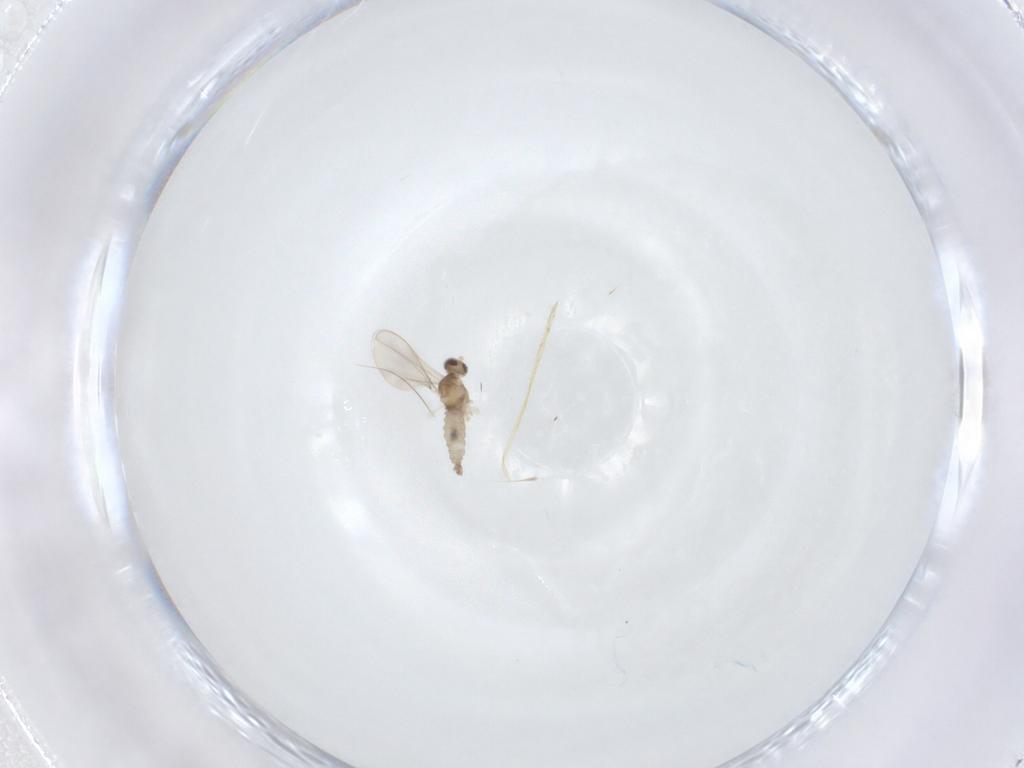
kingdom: Animalia
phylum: Arthropoda
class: Insecta
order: Diptera
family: Cecidomyiidae
